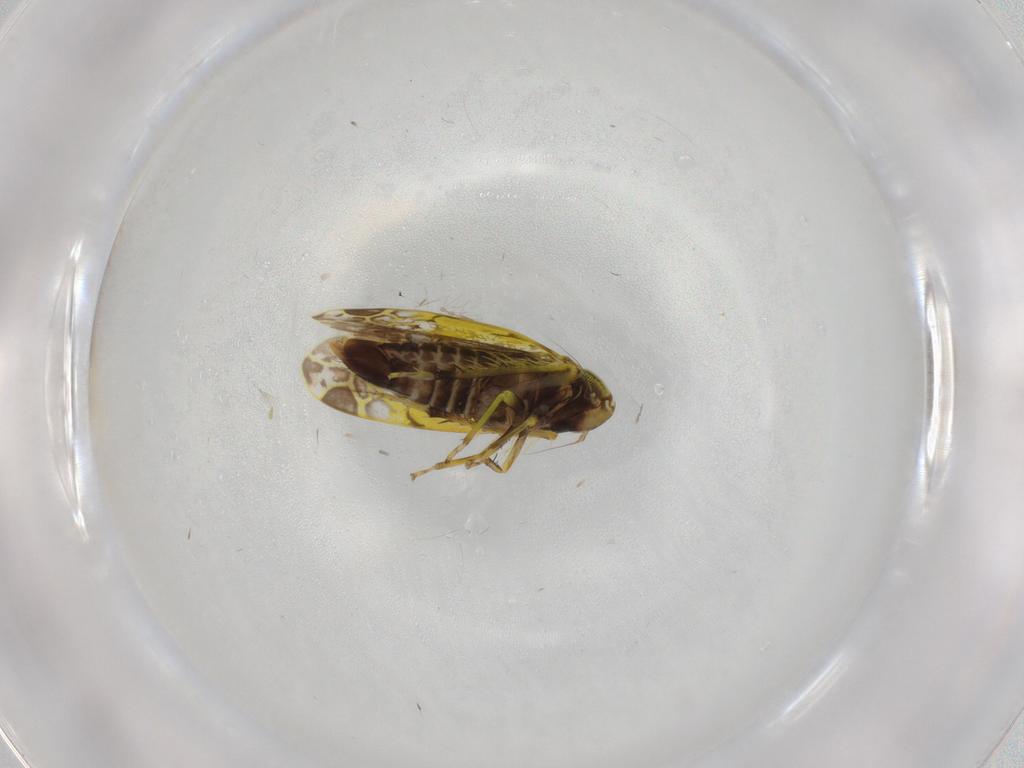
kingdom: Animalia
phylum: Arthropoda
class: Insecta
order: Hemiptera
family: Cicadellidae
